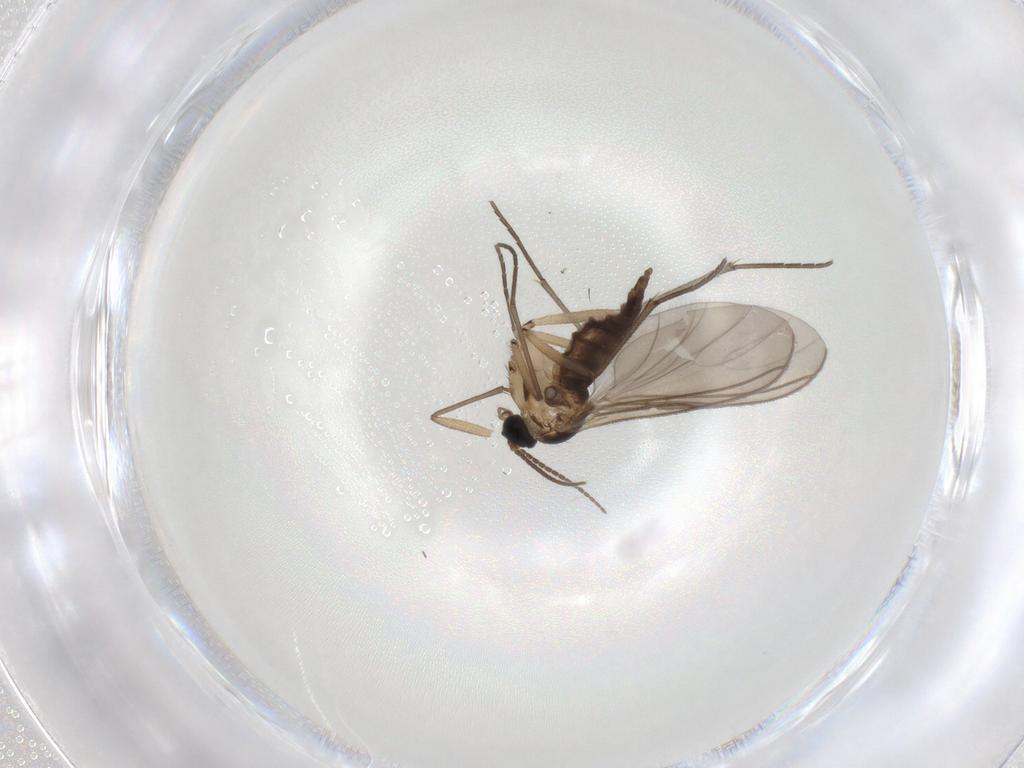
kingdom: Animalia
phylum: Arthropoda
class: Insecta
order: Diptera
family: Sciaridae
